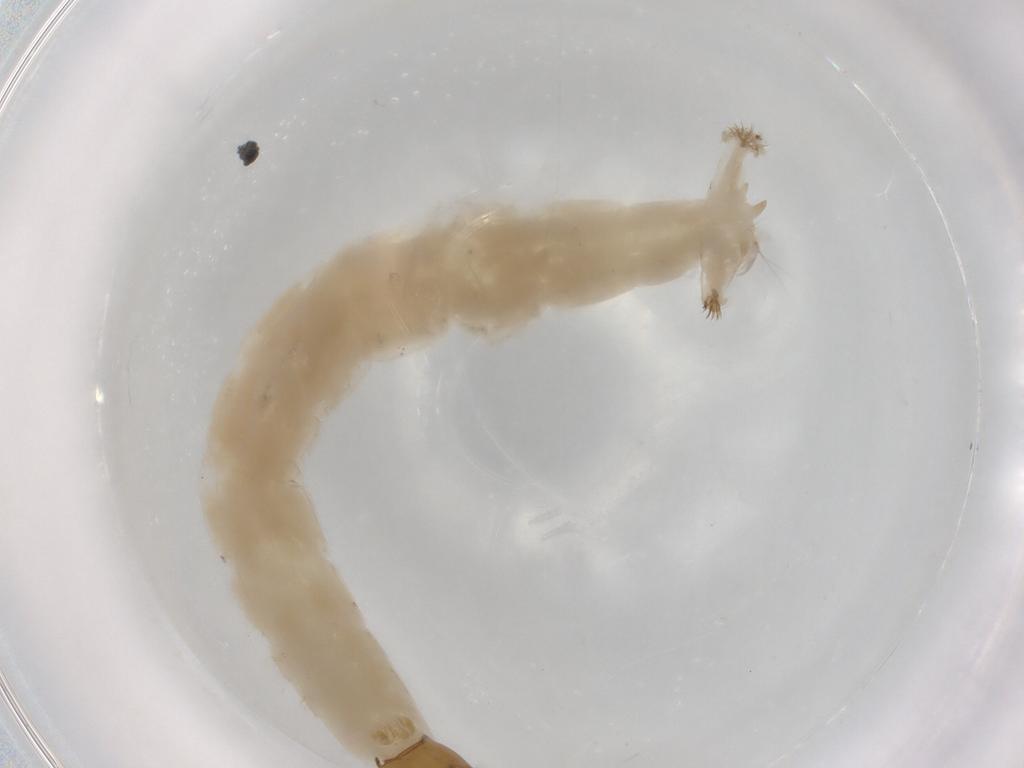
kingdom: Animalia
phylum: Arthropoda
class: Insecta
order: Diptera
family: Chironomidae
